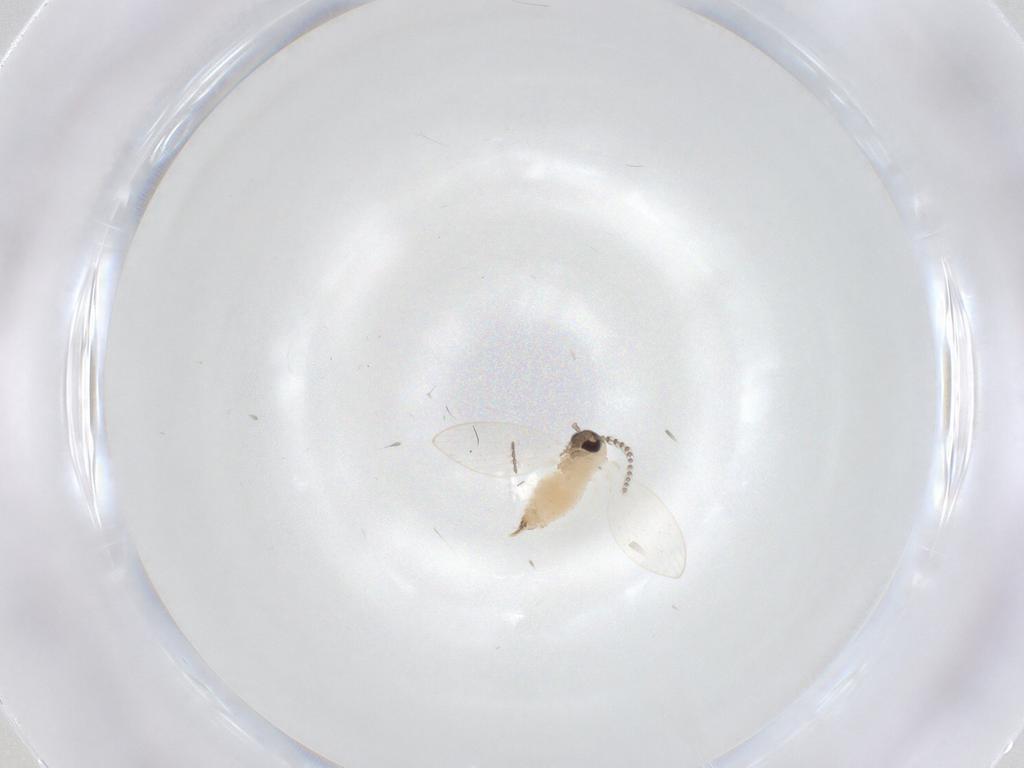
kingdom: Animalia
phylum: Arthropoda
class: Insecta
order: Diptera
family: Psychodidae
